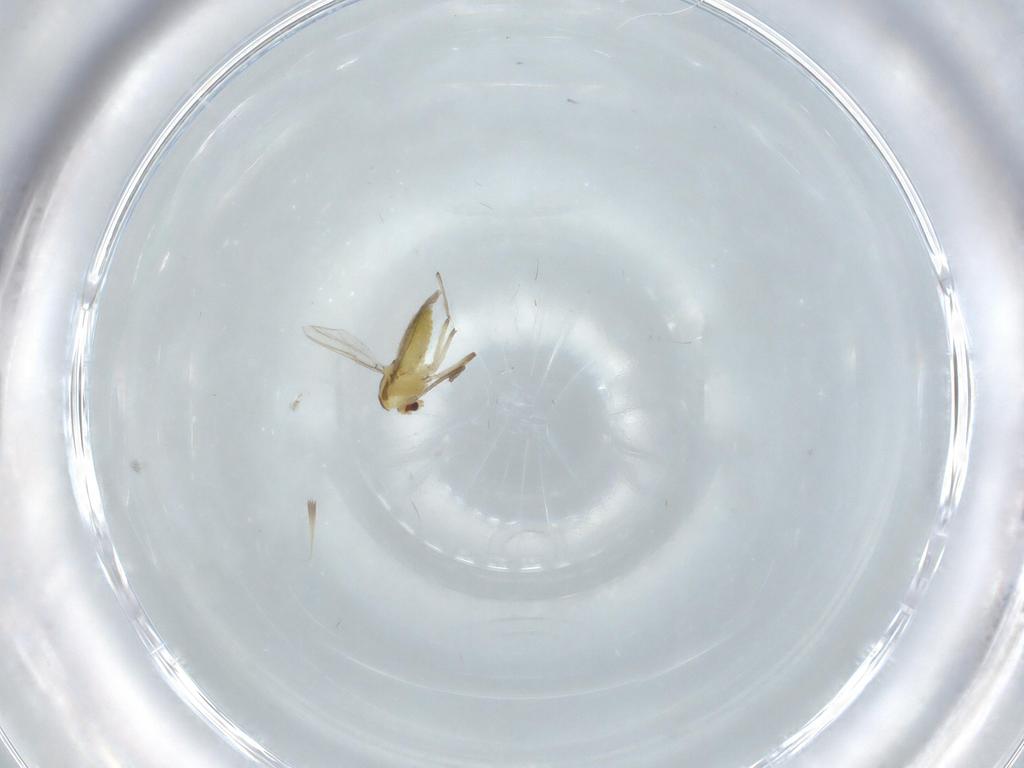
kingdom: Animalia
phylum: Arthropoda
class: Insecta
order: Diptera
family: Chironomidae
